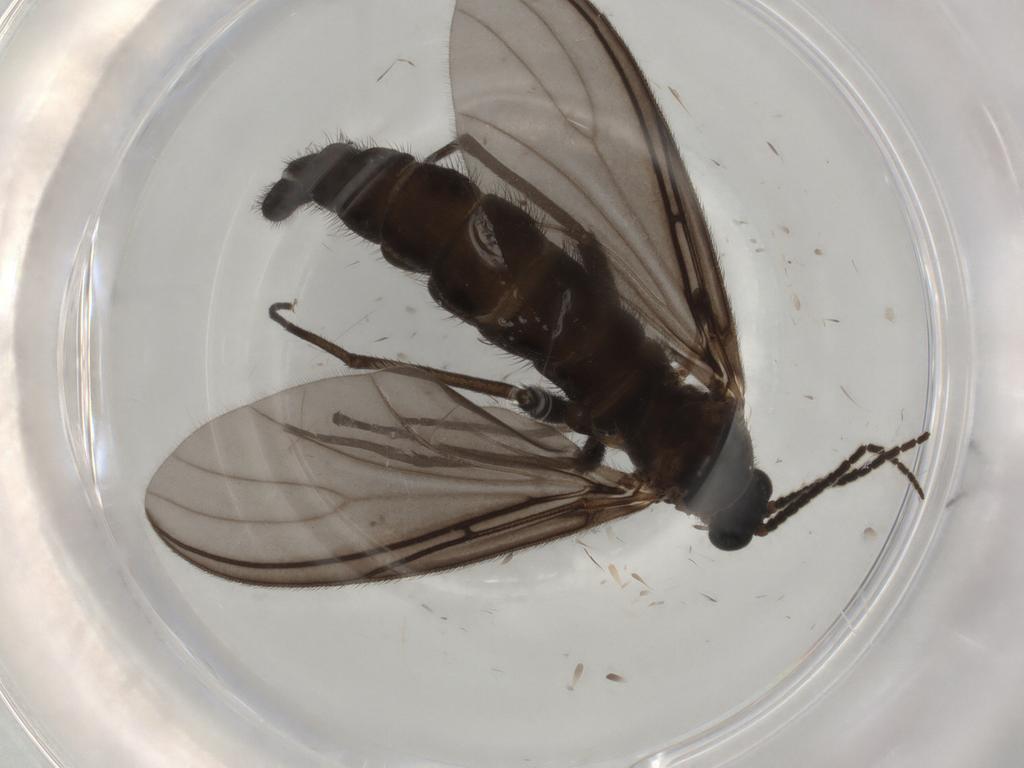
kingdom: Animalia
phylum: Arthropoda
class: Insecta
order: Diptera
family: Sciaridae
